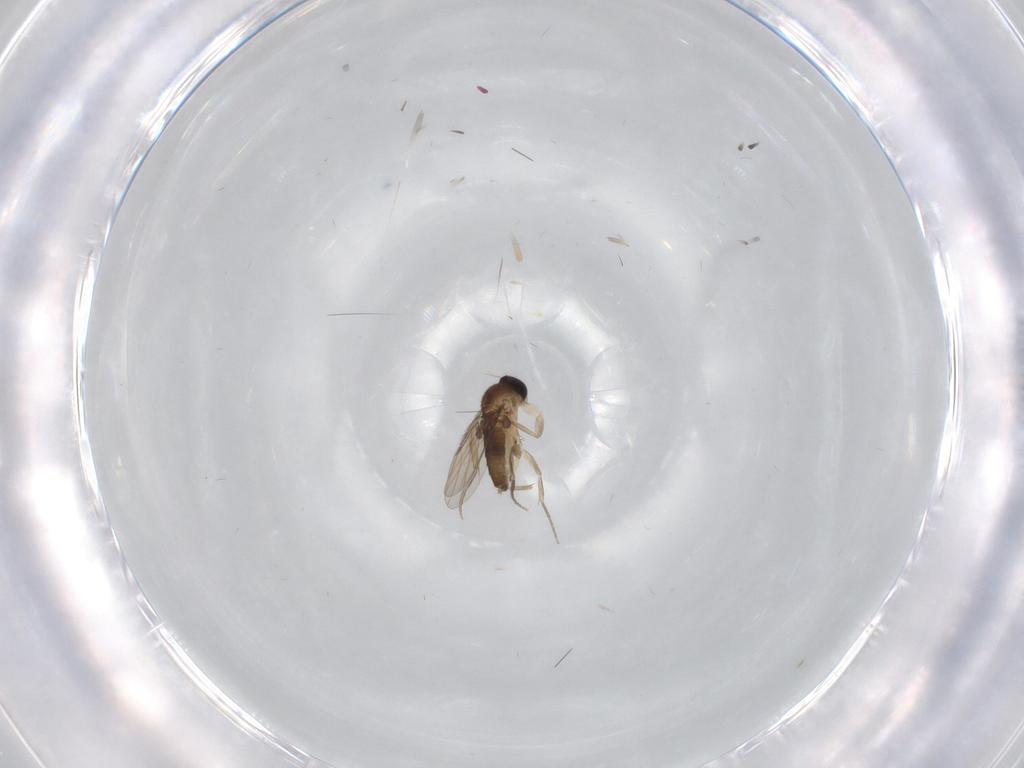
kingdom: Animalia
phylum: Arthropoda
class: Insecta
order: Diptera
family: Phoridae
